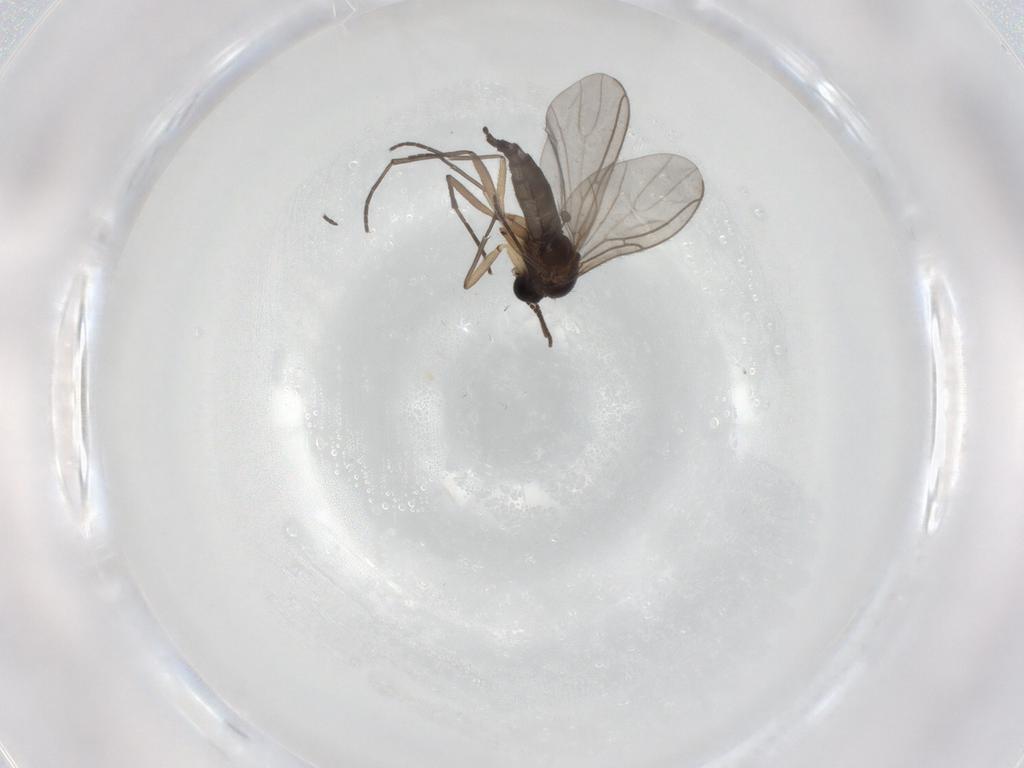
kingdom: Animalia
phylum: Arthropoda
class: Insecta
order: Diptera
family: Sciaridae
